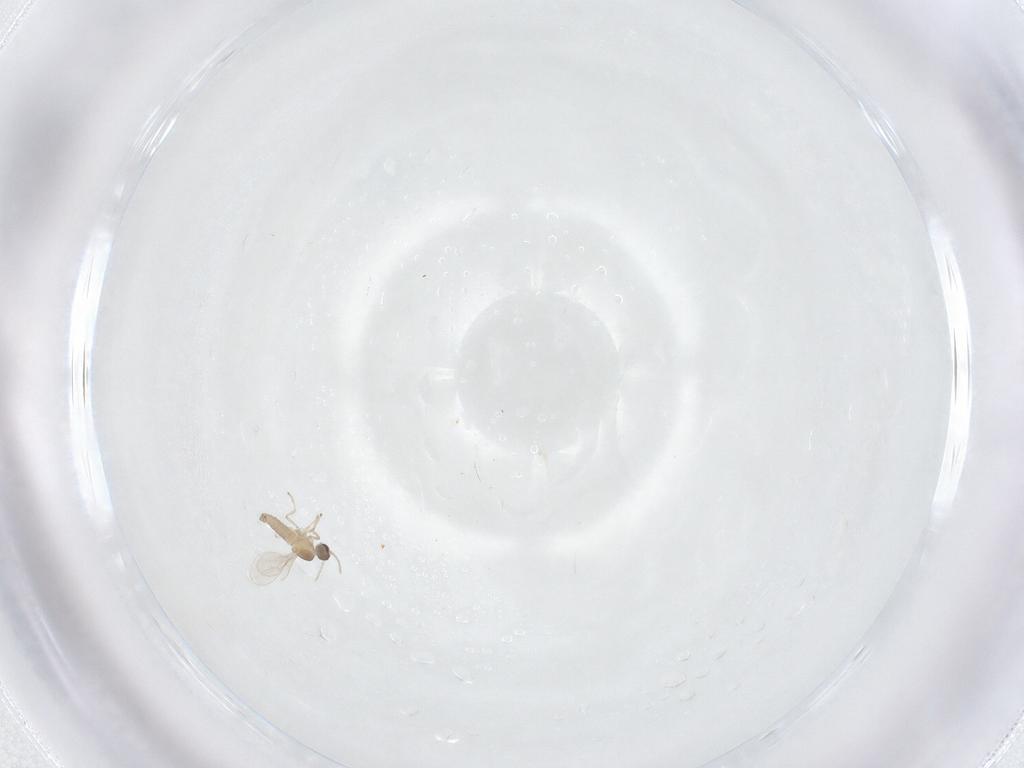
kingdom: Animalia
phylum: Arthropoda
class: Insecta
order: Diptera
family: Cecidomyiidae
